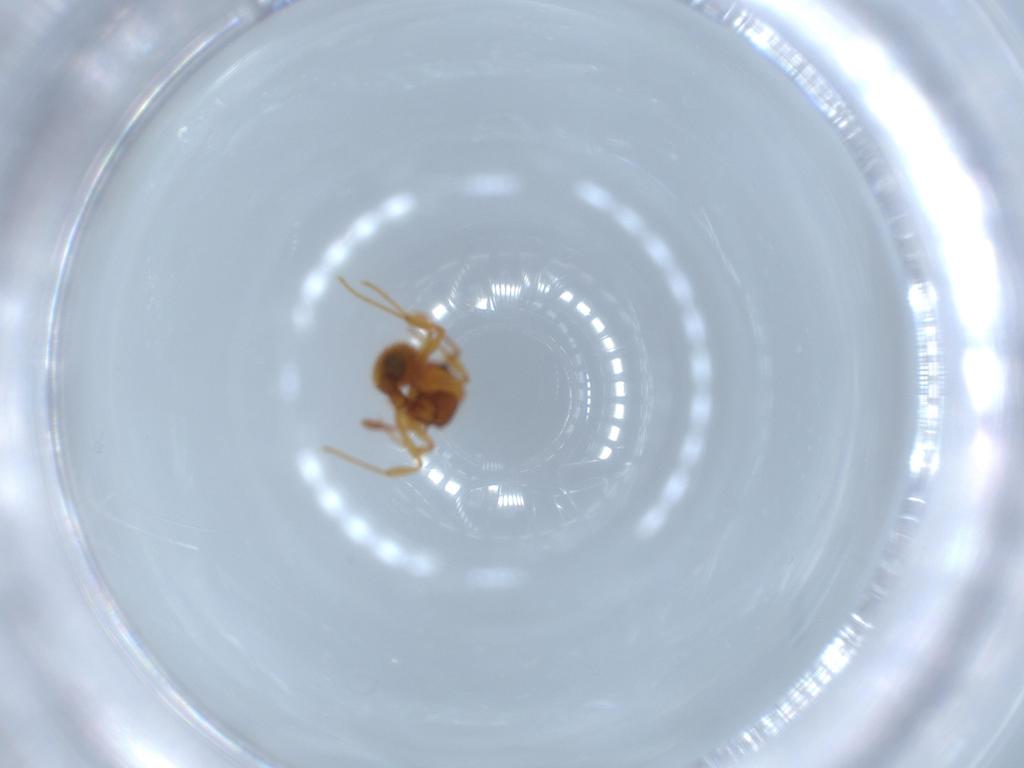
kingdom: Animalia
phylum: Arthropoda
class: Insecta
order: Hymenoptera
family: Formicidae
